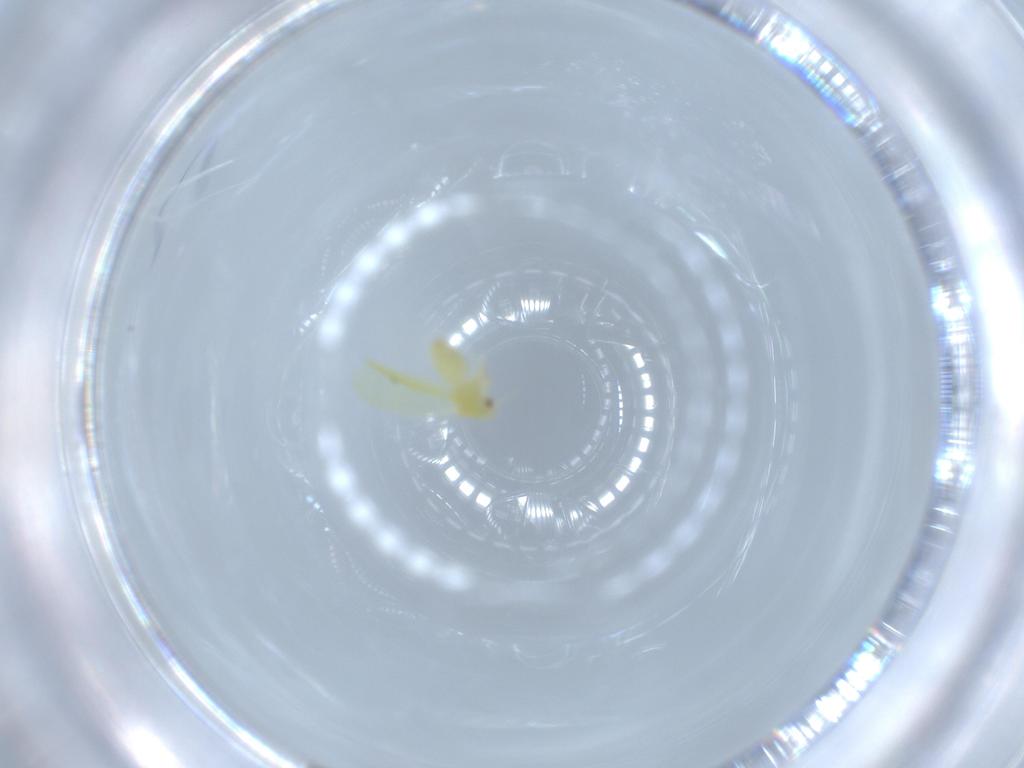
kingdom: Animalia
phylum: Arthropoda
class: Insecta
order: Hemiptera
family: Aleyrodidae
